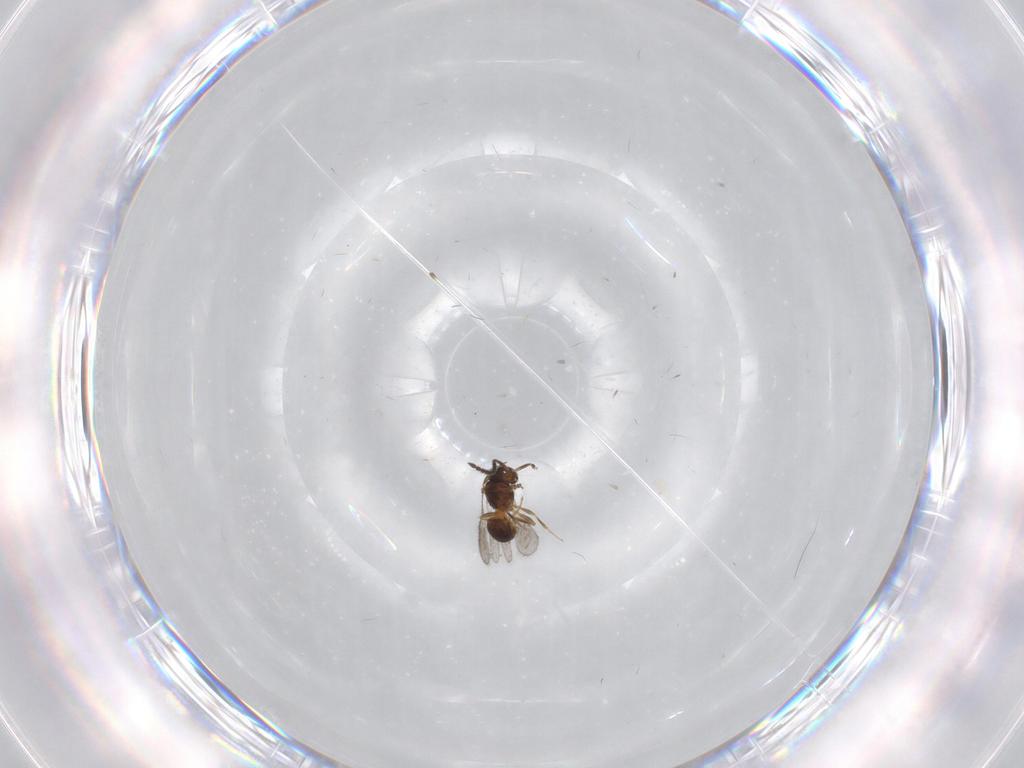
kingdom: Animalia
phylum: Arthropoda
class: Insecta
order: Hymenoptera
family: Scelionidae
